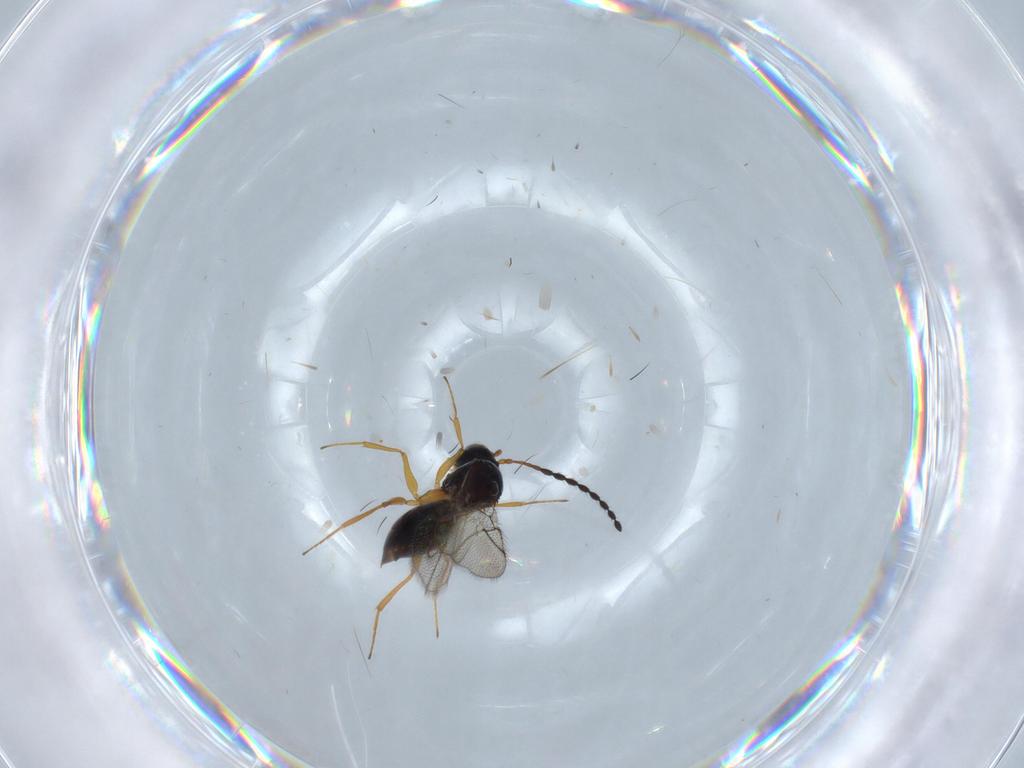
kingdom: Animalia
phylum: Arthropoda
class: Insecta
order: Hymenoptera
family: Figitidae
